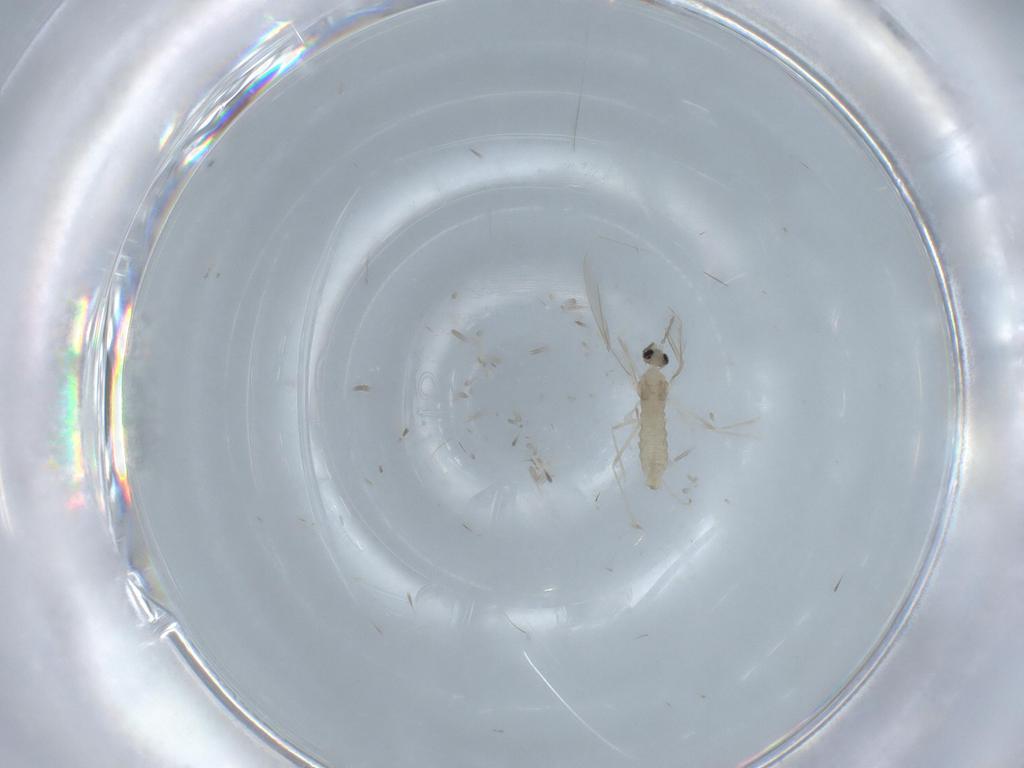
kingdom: Animalia
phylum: Arthropoda
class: Insecta
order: Diptera
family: Cecidomyiidae
